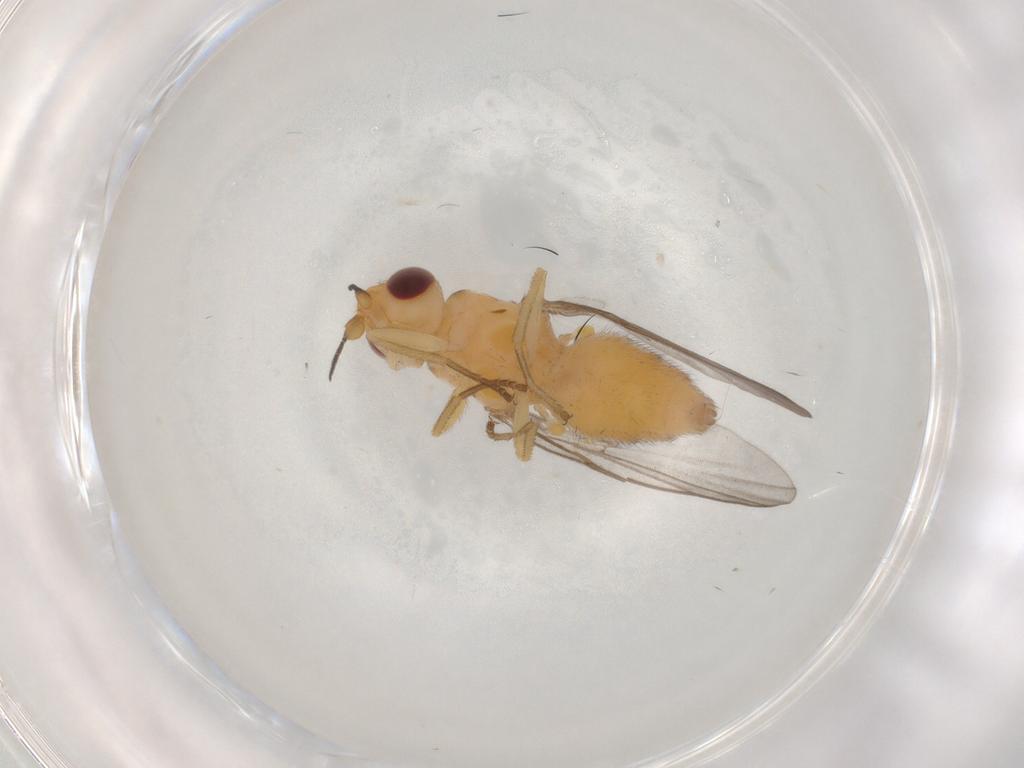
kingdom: Animalia
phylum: Arthropoda
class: Insecta
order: Diptera
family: Chloropidae
